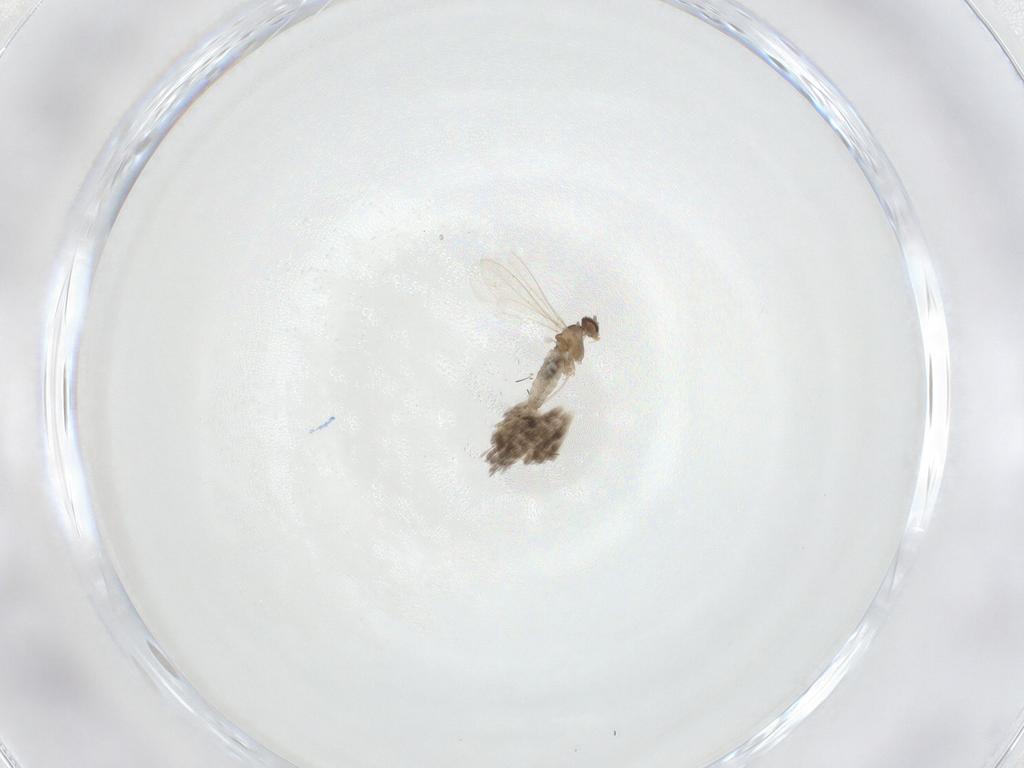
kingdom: Animalia
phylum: Arthropoda
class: Insecta
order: Diptera
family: Cecidomyiidae
